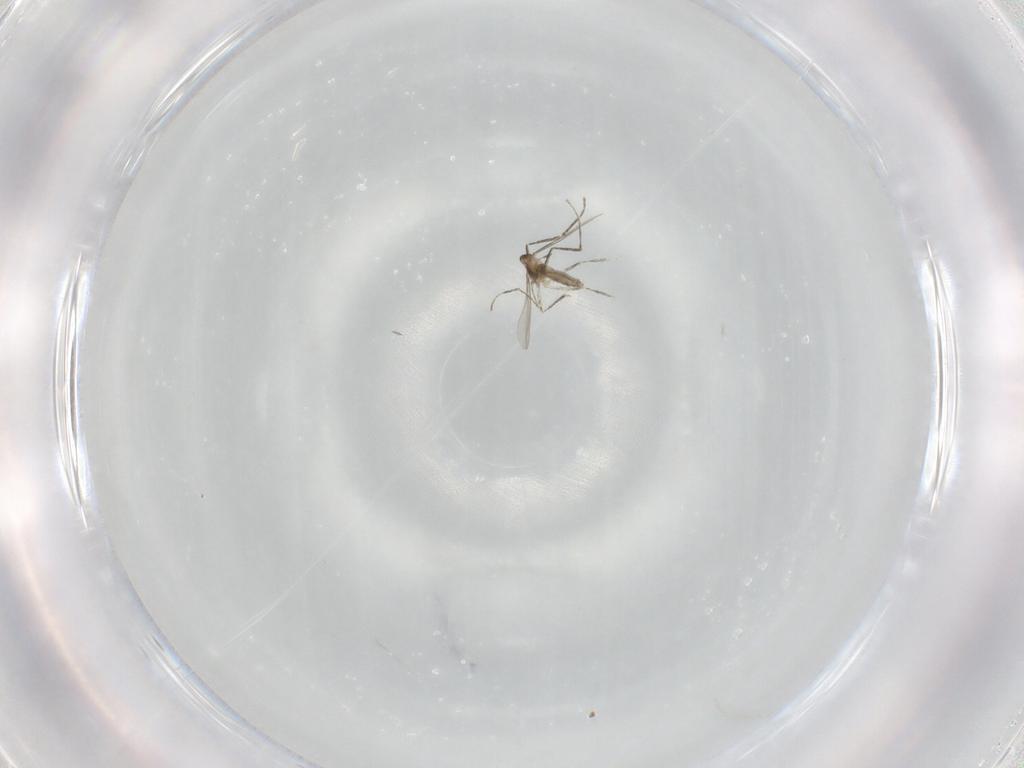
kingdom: Animalia
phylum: Arthropoda
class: Insecta
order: Diptera
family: Cecidomyiidae
